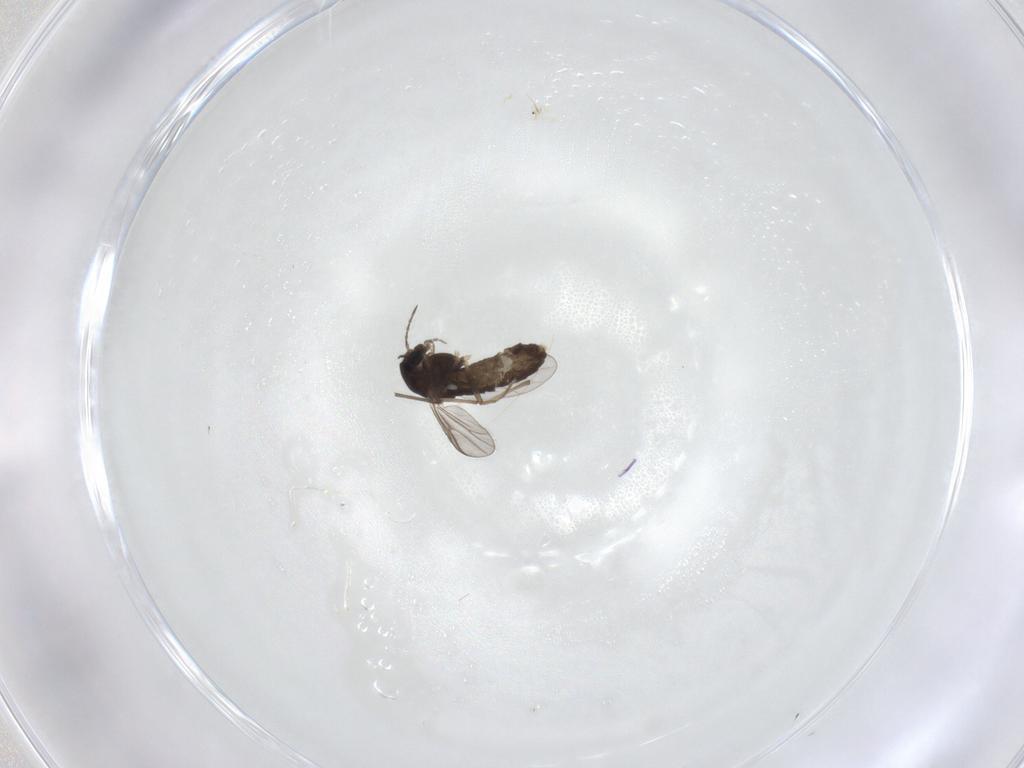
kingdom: Animalia
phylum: Arthropoda
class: Insecta
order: Diptera
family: Chironomidae
